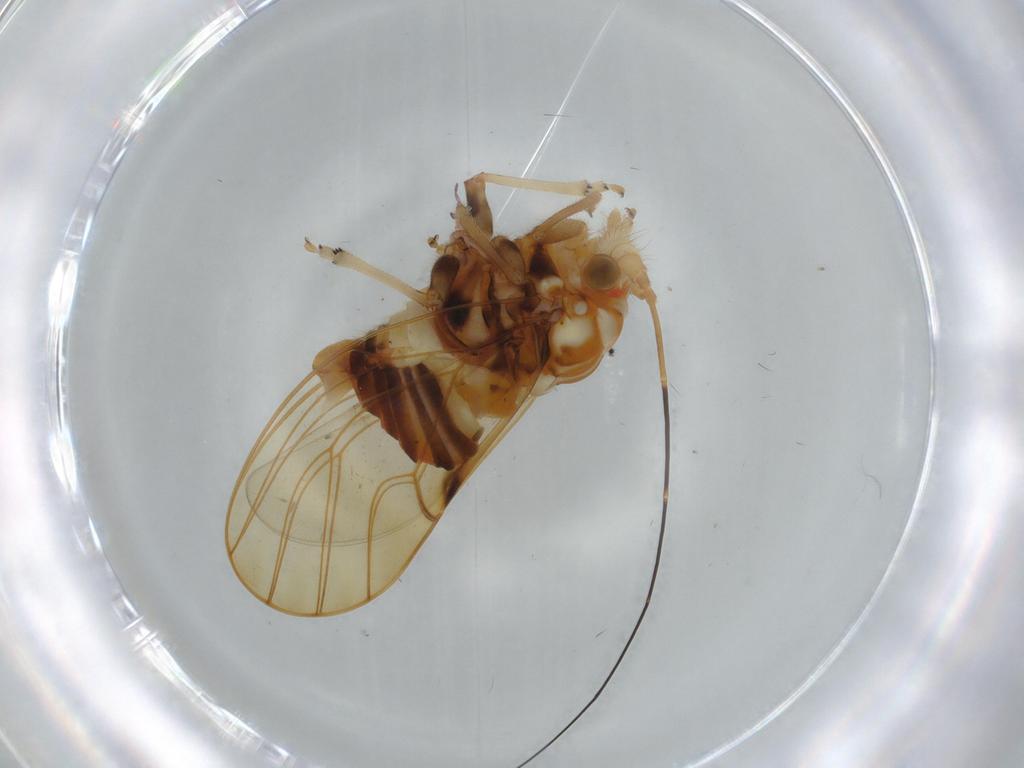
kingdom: Animalia
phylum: Arthropoda
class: Insecta
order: Hemiptera
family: Psyllidae
